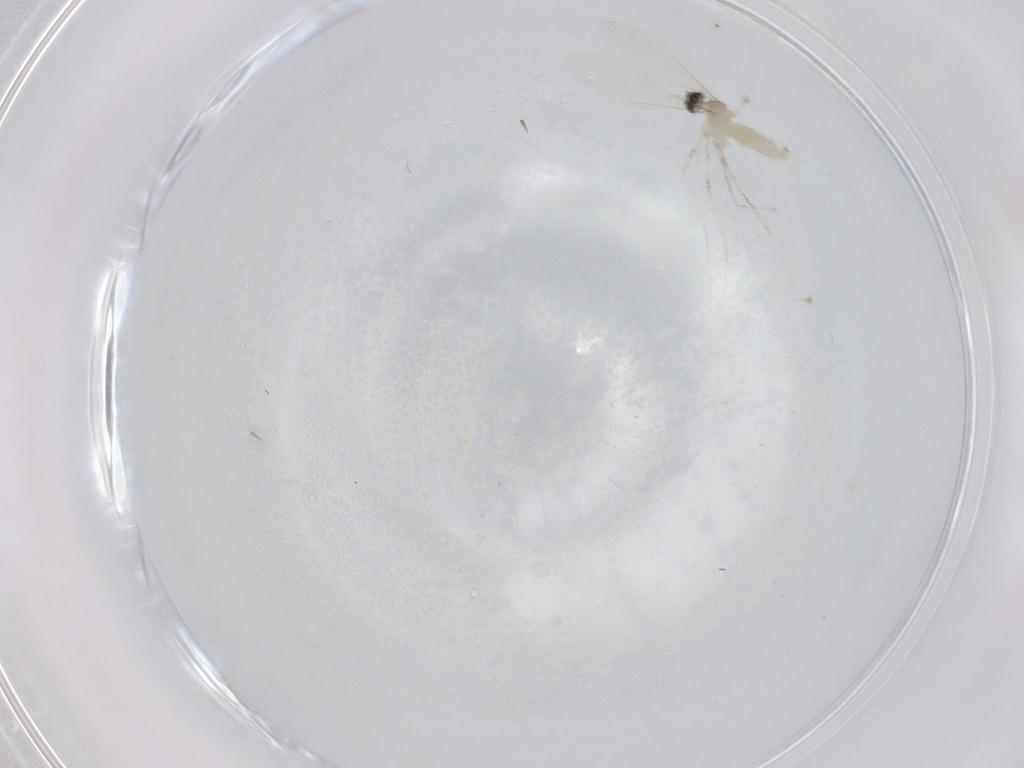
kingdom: Animalia
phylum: Arthropoda
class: Insecta
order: Diptera
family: Cecidomyiidae
